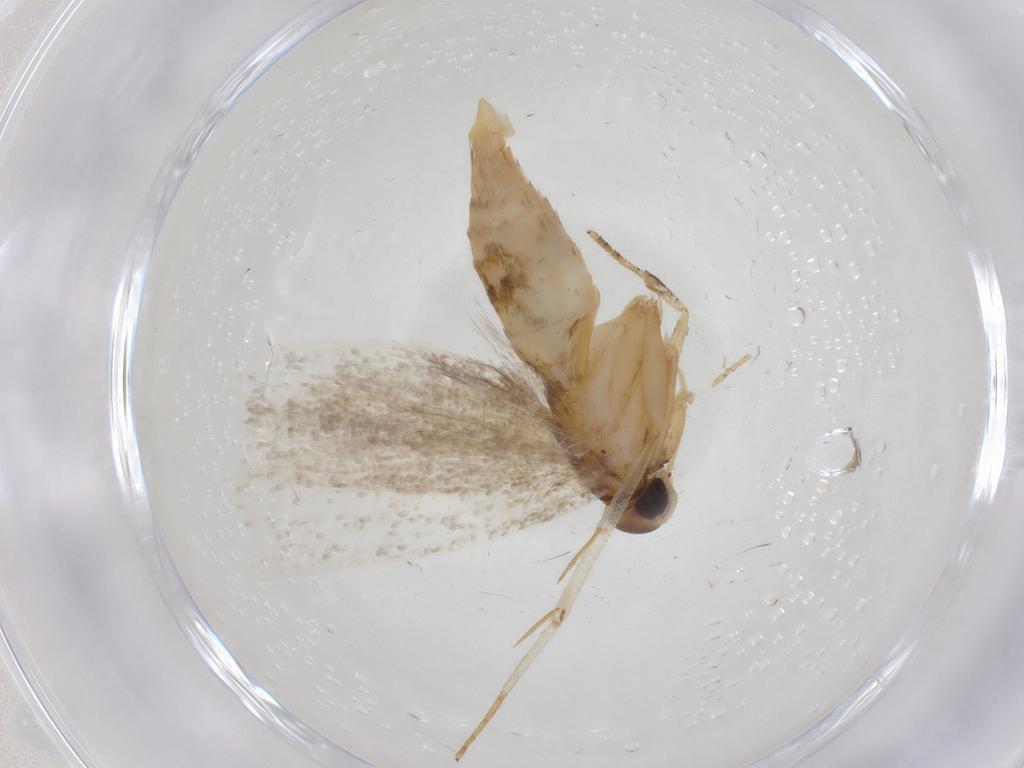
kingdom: Animalia
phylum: Arthropoda
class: Insecta
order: Lepidoptera
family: Oecophoridae
